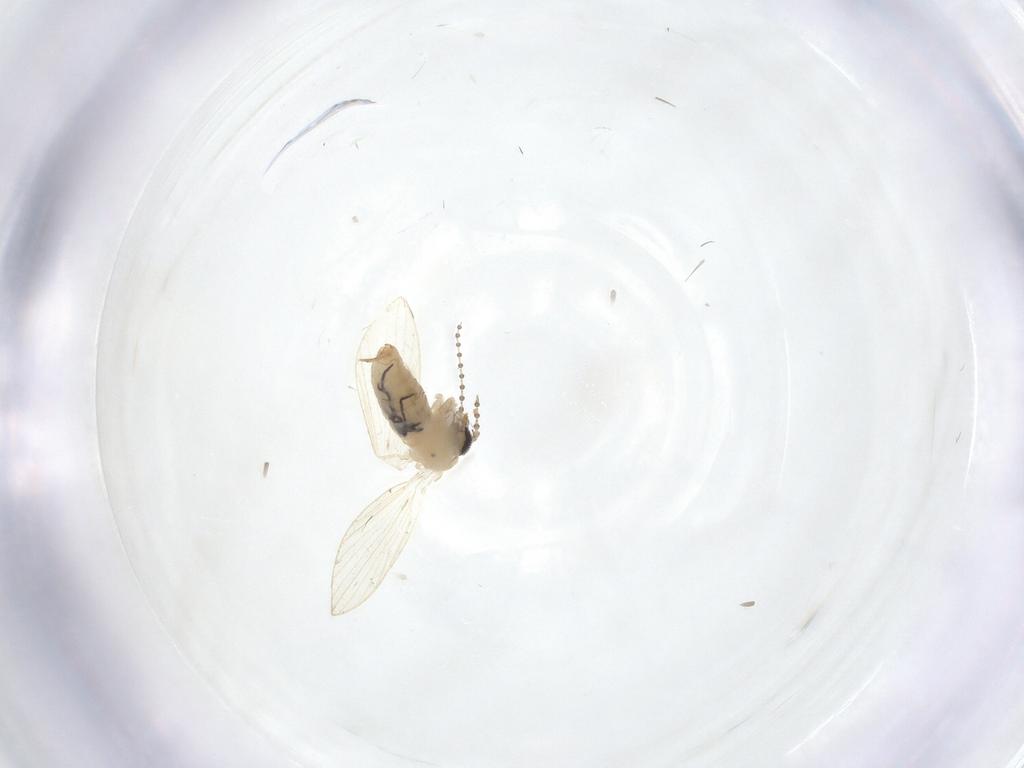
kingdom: Animalia
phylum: Arthropoda
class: Insecta
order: Diptera
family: Psychodidae
